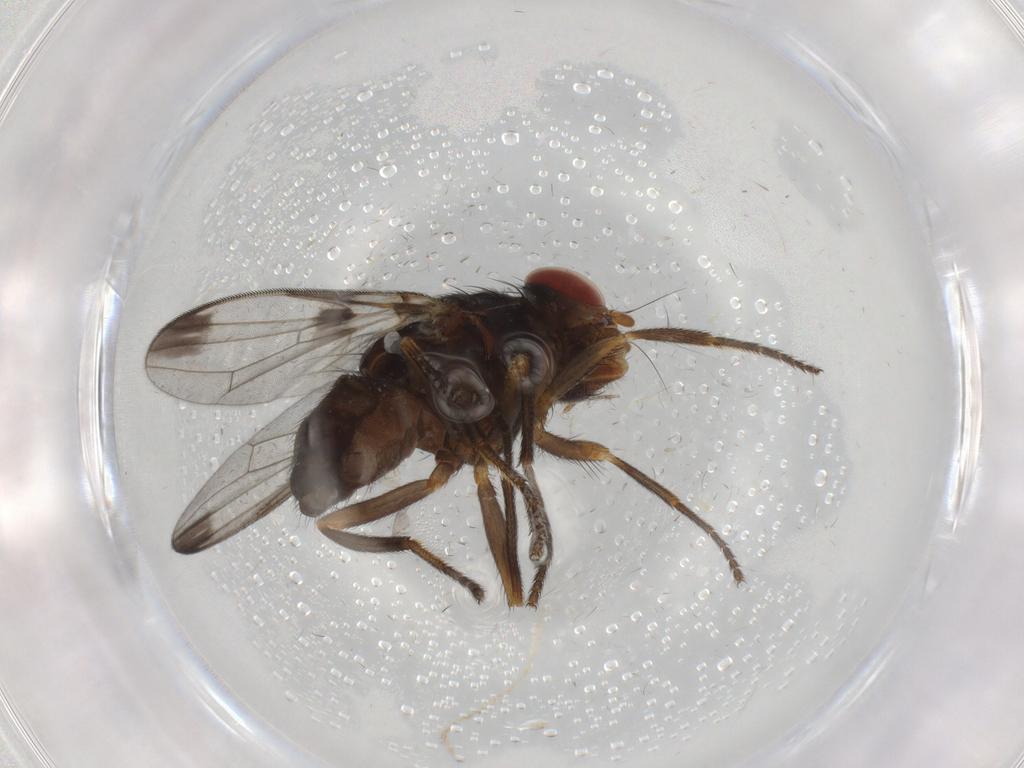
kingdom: Animalia
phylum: Arthropoda
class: Insecta
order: Diptera
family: Ulidiidae
